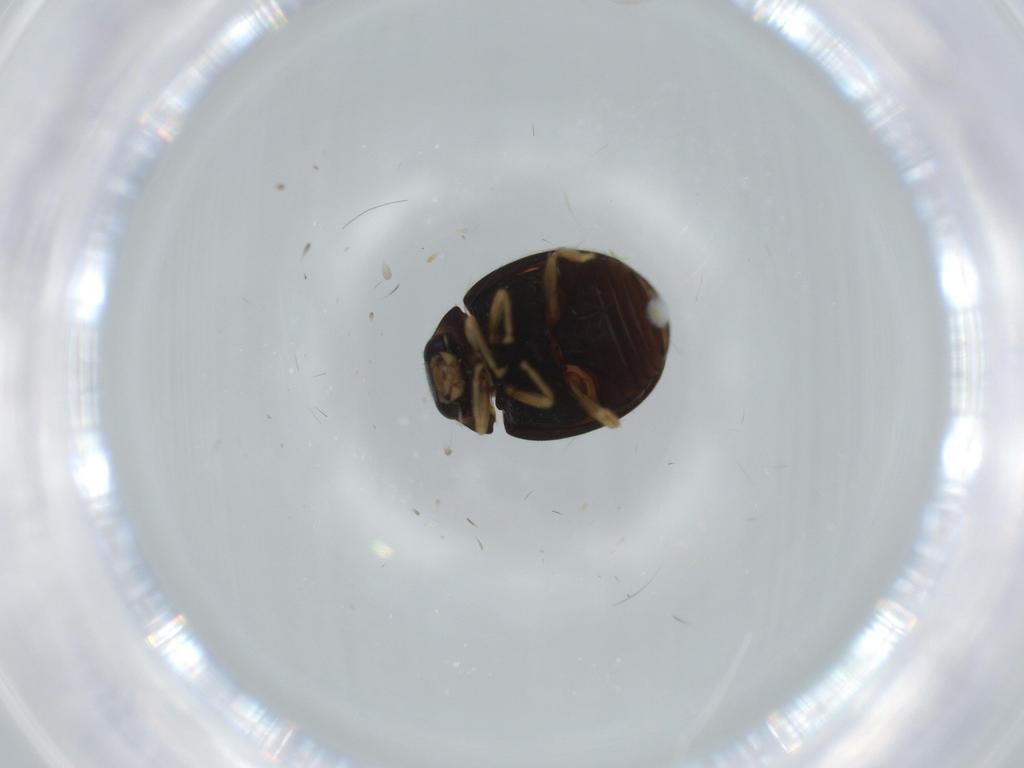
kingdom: Animalia
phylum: Arthropoda
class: Insecta
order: Coleoptera
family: Coccinellidae
